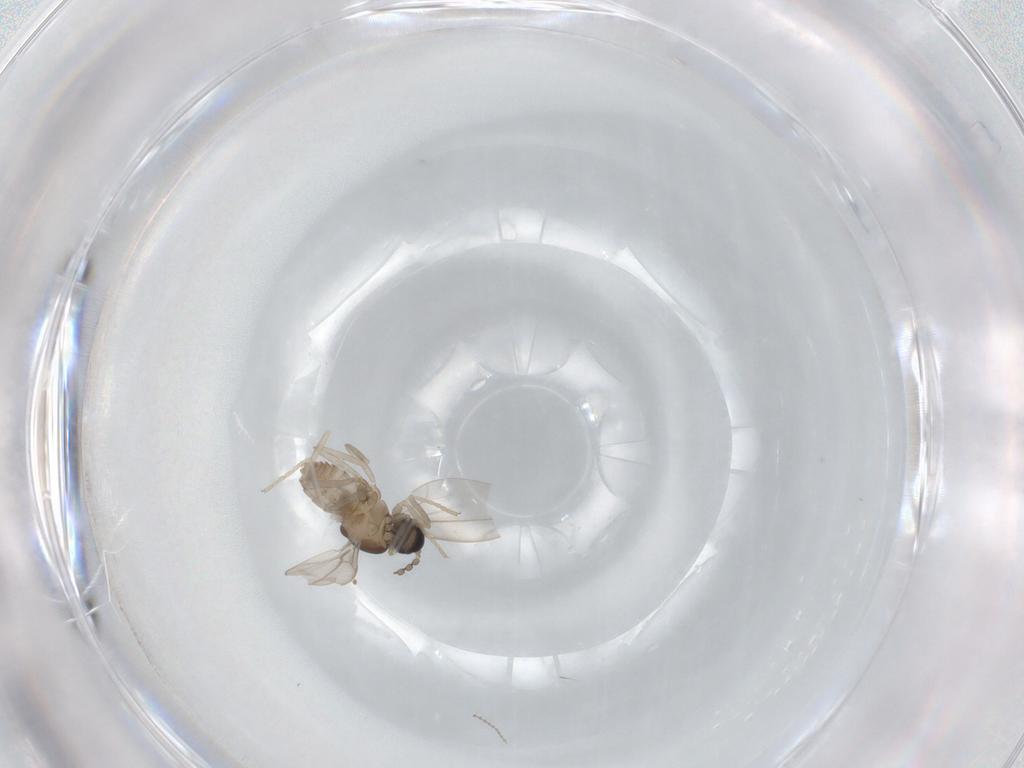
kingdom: Animalia
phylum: Arthropoda
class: Insecta
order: Diptera
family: Cecidomyiidae
